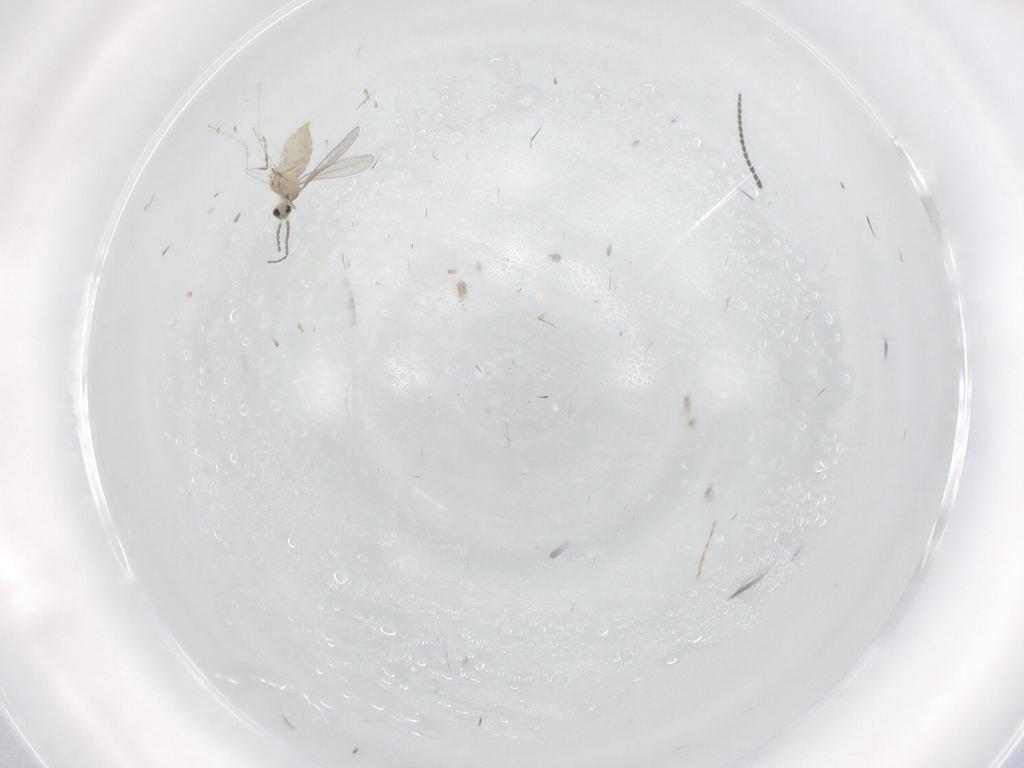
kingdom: Animalia
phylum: Arthropoda
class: Insecta
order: Diptera
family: Cecidomyiidae
